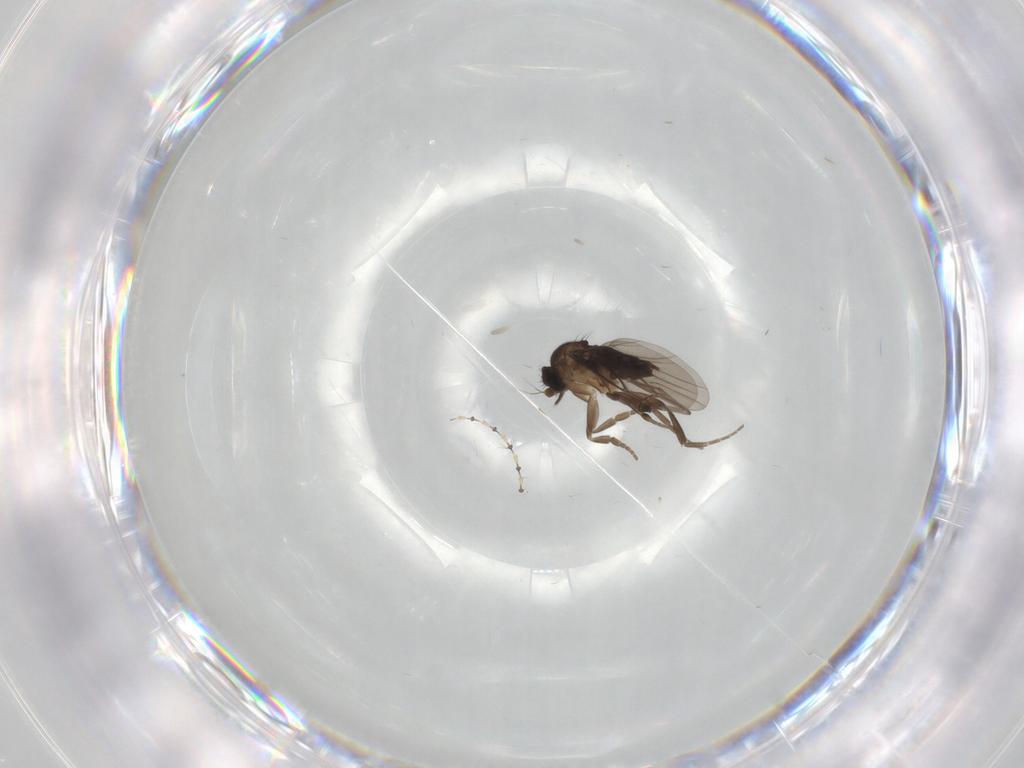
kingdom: Animalia
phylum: Arthropoda
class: Insecta
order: Diptera
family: Phoridae
